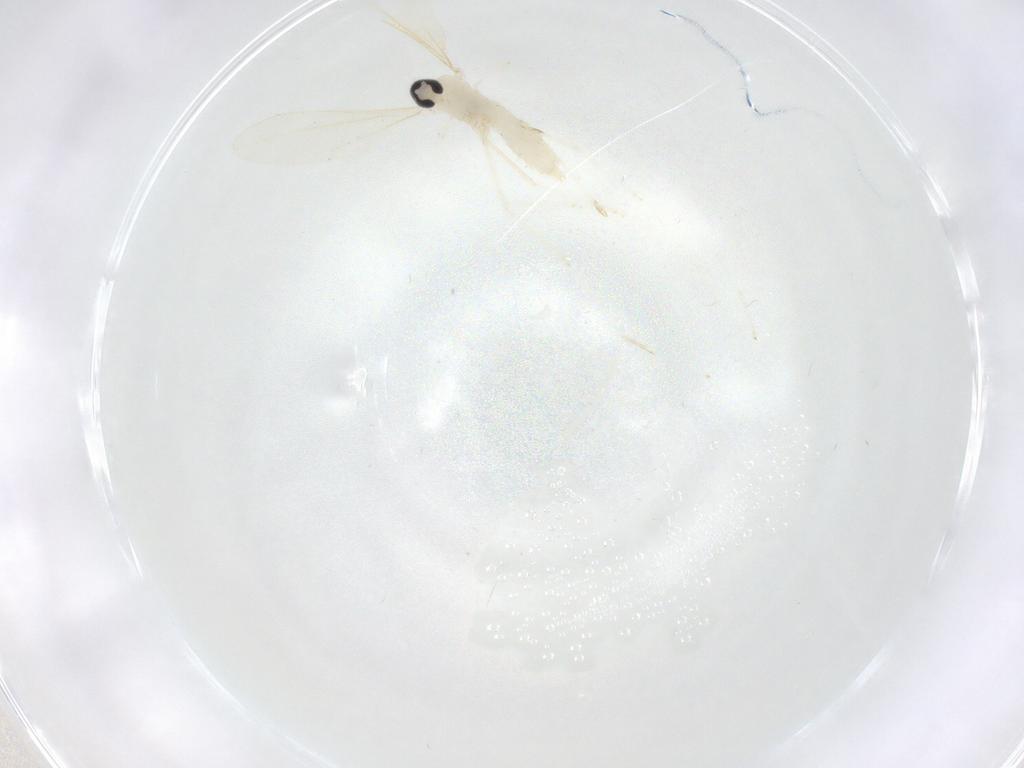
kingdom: Animalia
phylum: Arthropoda
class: Insecta
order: Diptera
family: Cecidomyiidae
